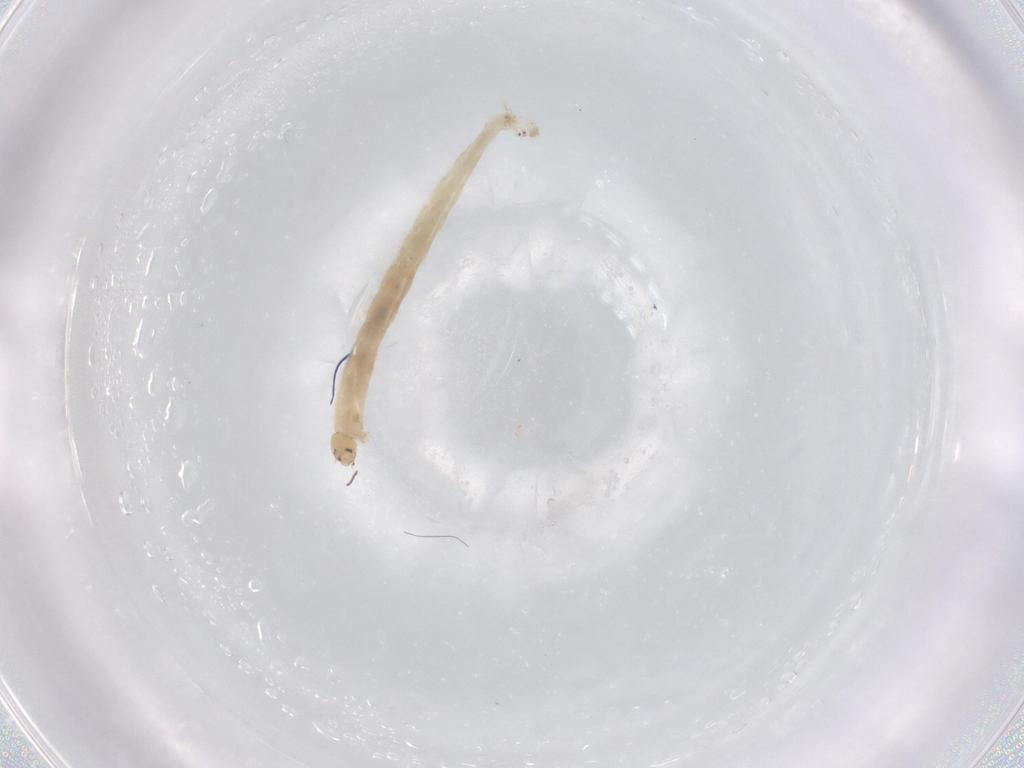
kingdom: Animalia
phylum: Arthropoda
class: Insecta
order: Diptera
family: Chironomidae
